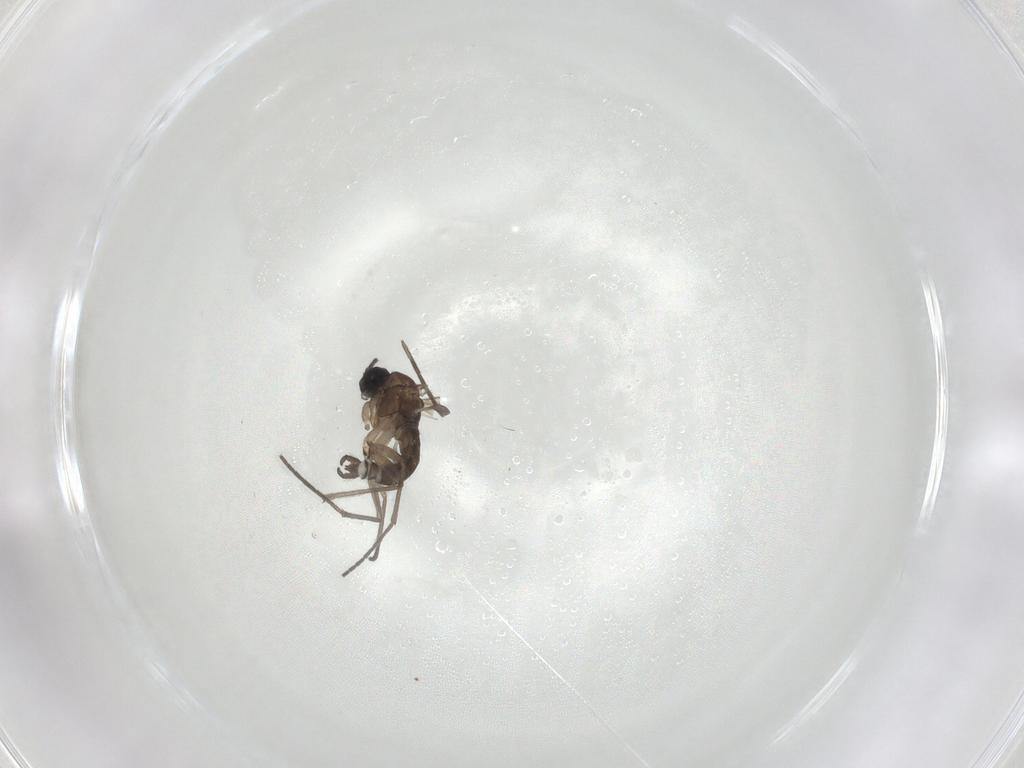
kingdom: Animalia
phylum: Arthropoda
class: Insecta
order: Diptera
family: Sciaridae
